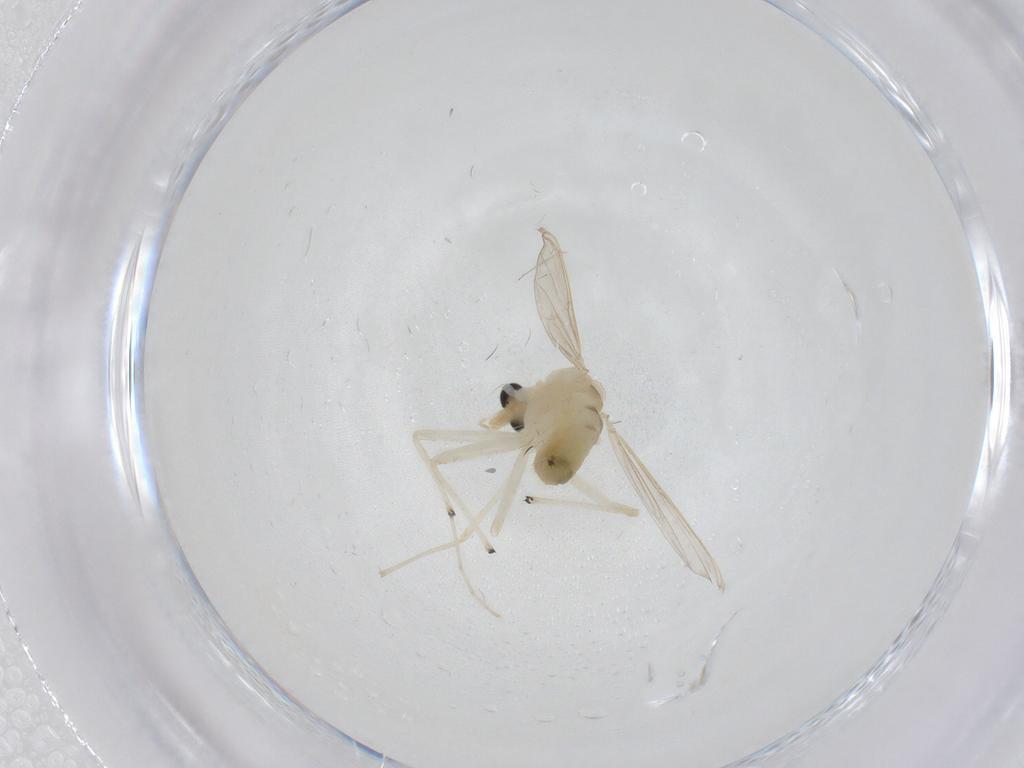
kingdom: Animalia
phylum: Arthropoda
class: Insecta
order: Diptera
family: Chironomidae
